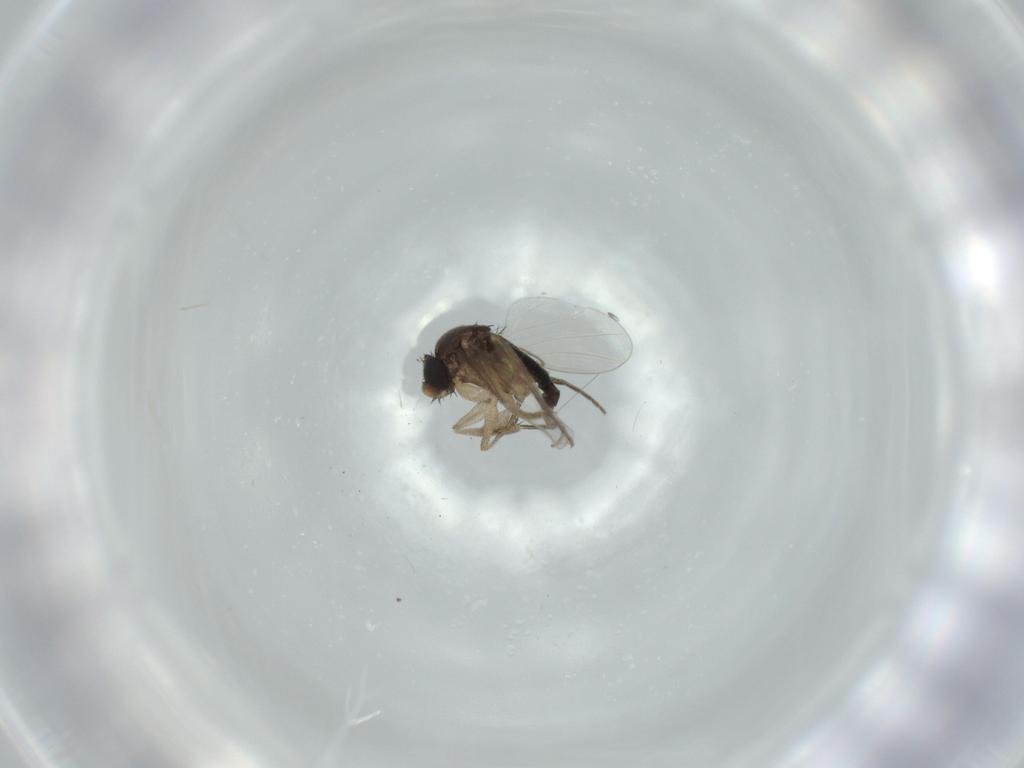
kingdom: Animalia
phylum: Arthropoda
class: Insecta
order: Diptera
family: Phoridae
